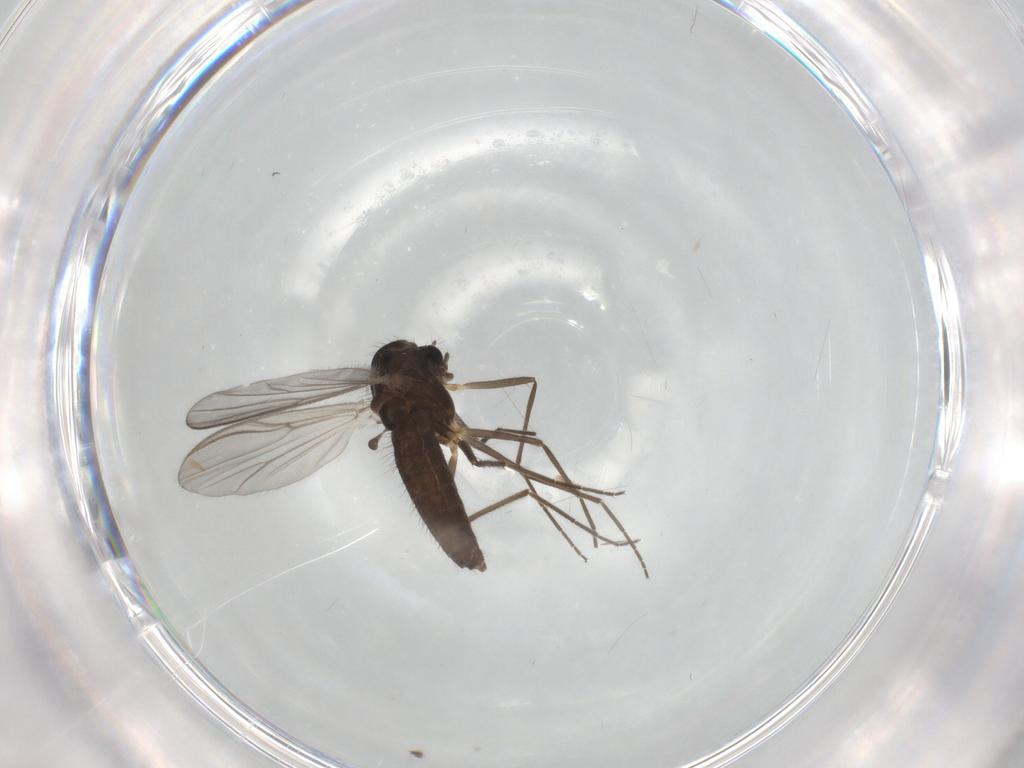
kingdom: Animalia
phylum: Arthropoda
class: Insecta
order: Diptera
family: Chironomidae
